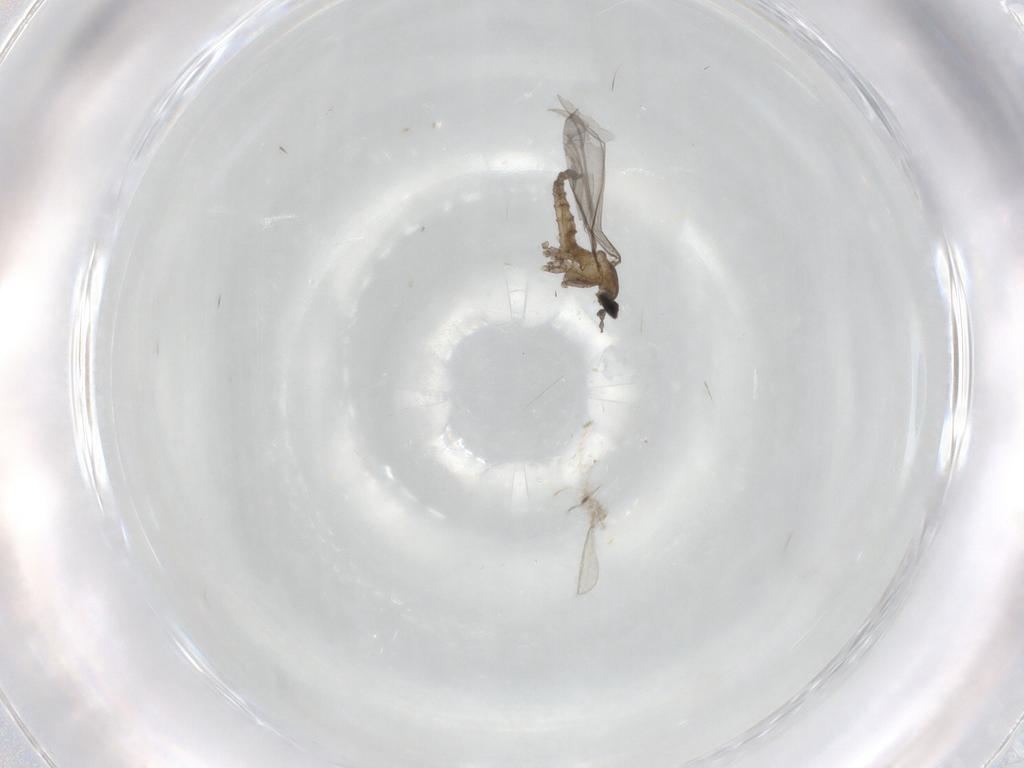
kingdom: Animalia
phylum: Arthropoda
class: Insecta
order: Diptera
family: Cecidomyiidae
